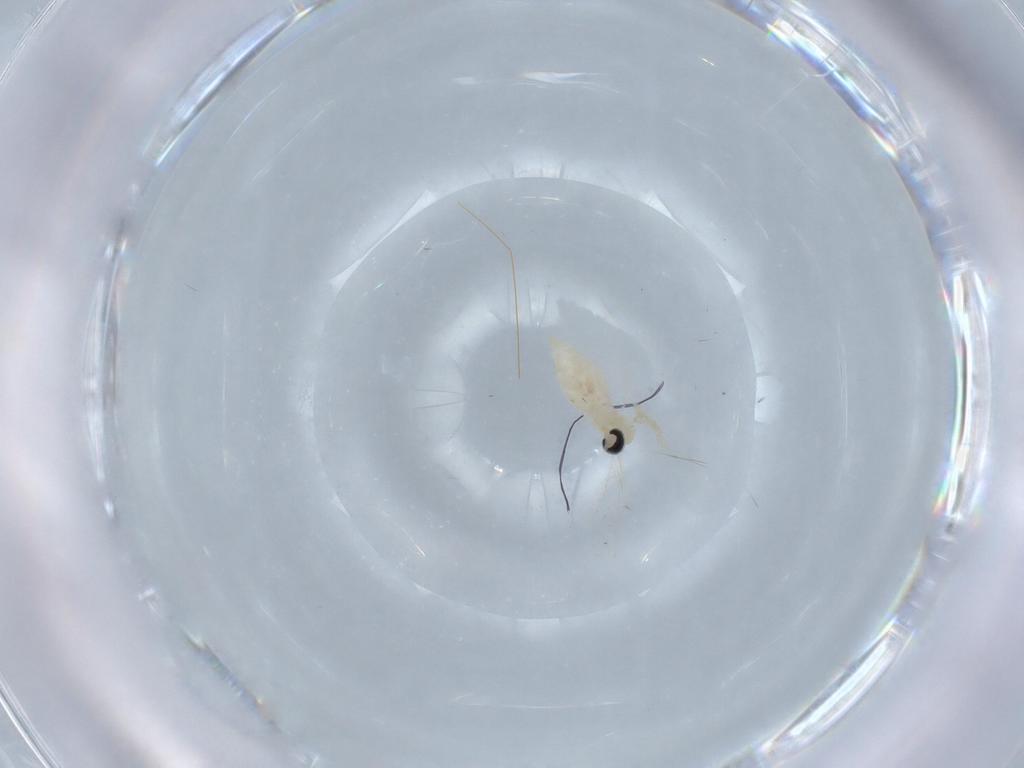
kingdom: Animalia
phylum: Arthropoda
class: Insecta
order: Diptera
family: Cecidomyiidae
